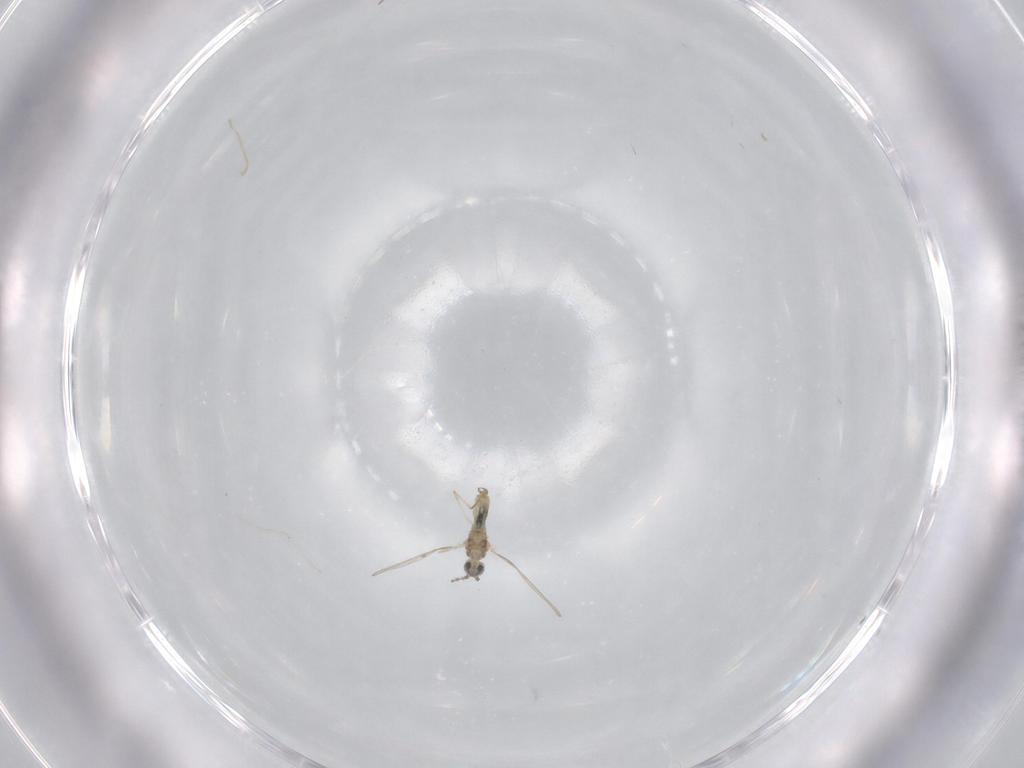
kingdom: Animalia
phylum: Arthropoda
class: Insecta
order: Diptera
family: Cecidomyiidae
